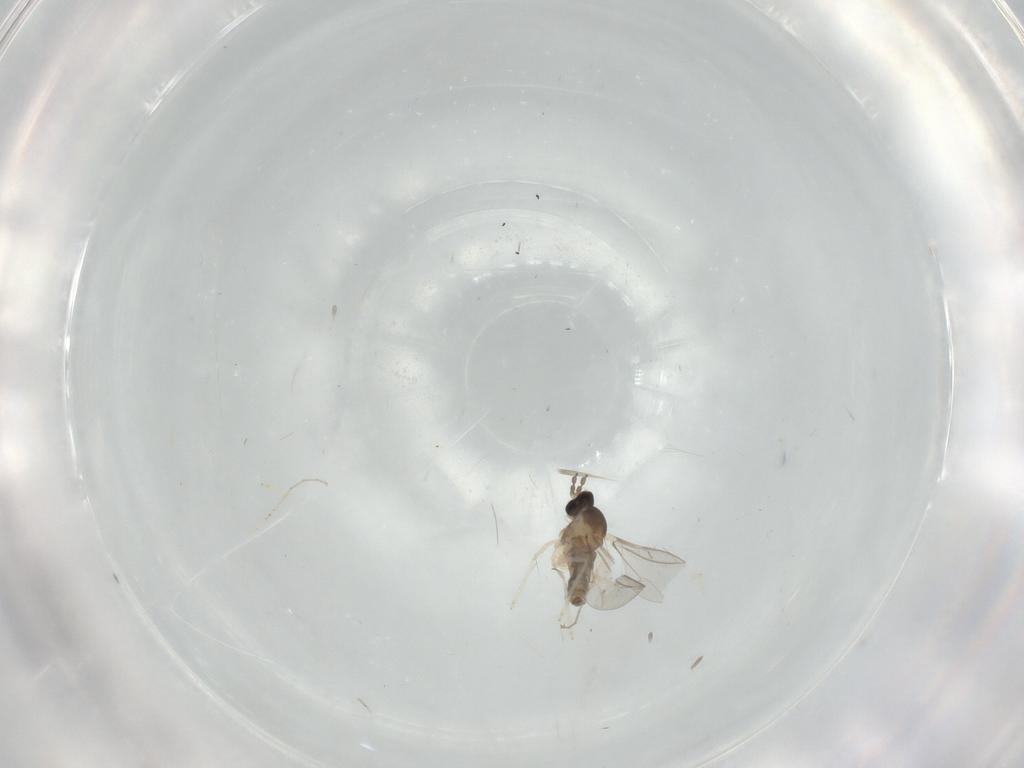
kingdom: Animalia
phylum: Arthropoda
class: Insecta
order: Diptera
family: Cecidomyiidae
